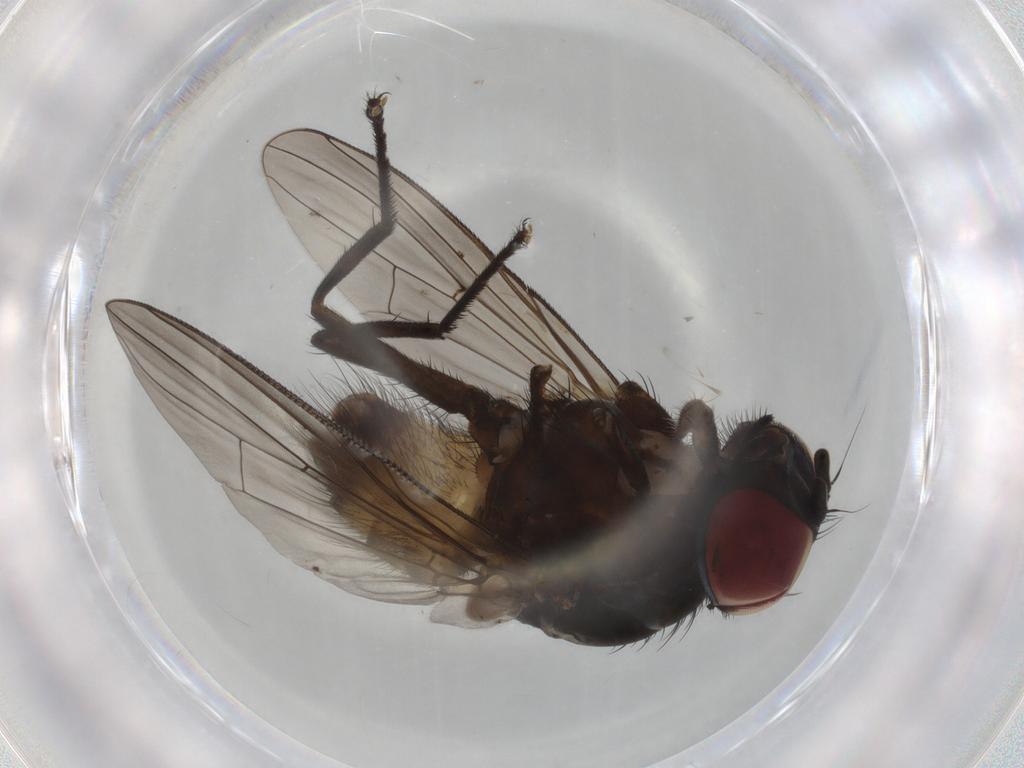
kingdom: Animalia
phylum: Arthropoda
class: Insecta
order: Diptera
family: Muscidae
